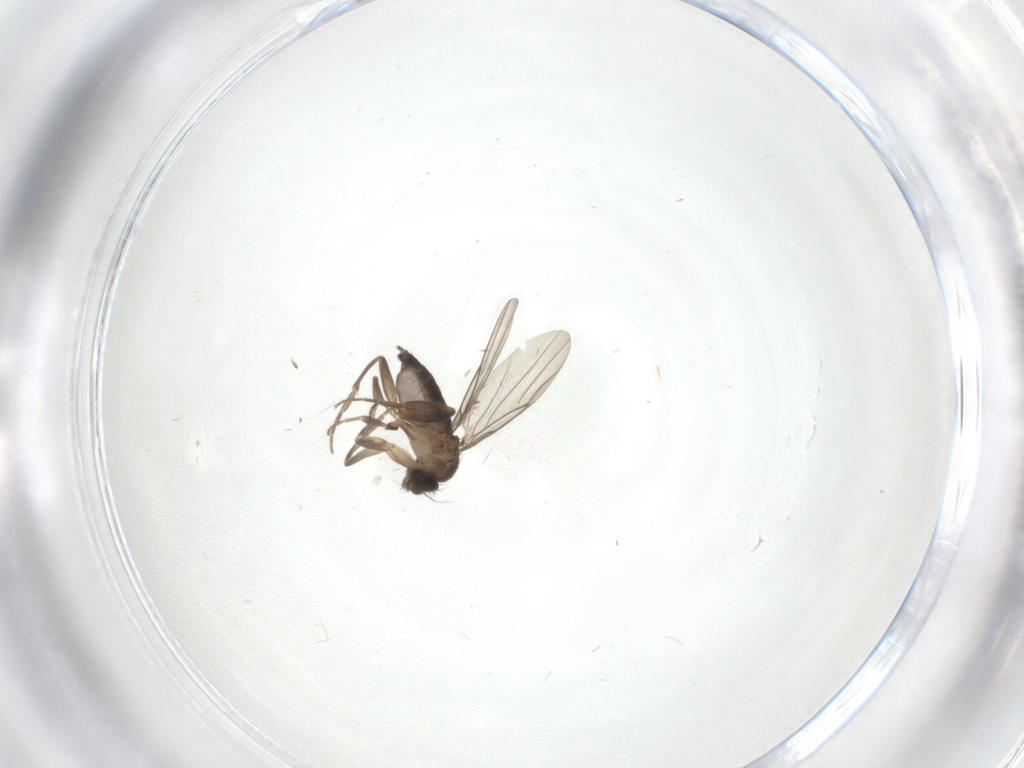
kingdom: Animalia
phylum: Arthropoda
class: Insecta
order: Diptera
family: Phoridae
